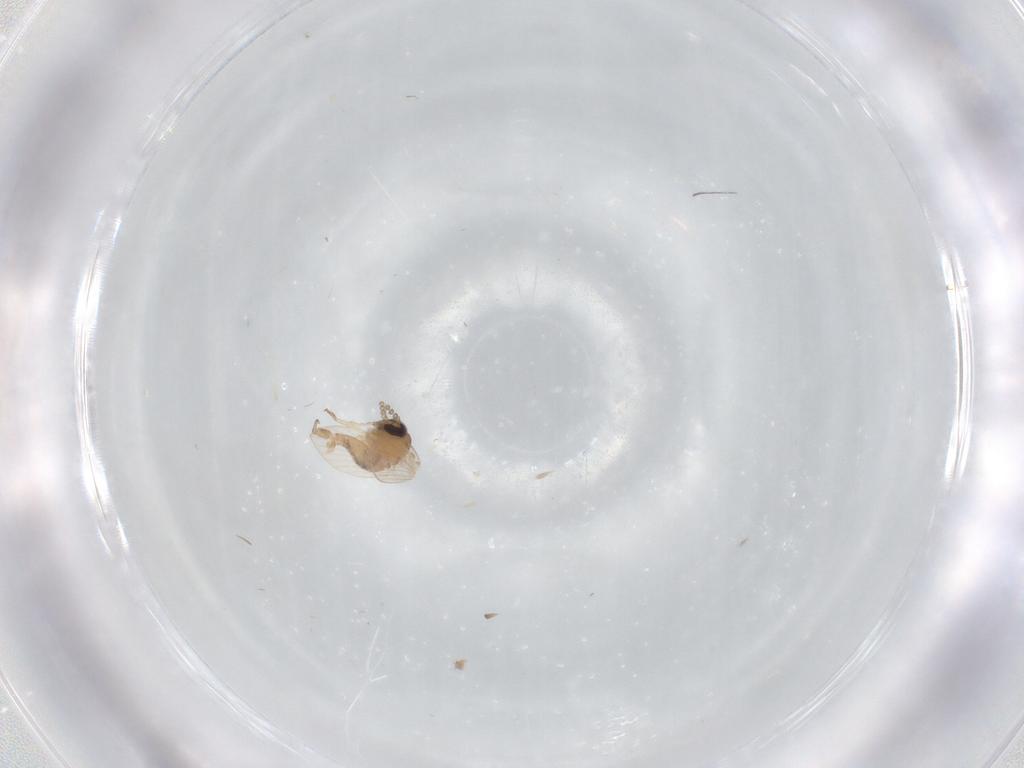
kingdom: Animalia
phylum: Arthropoda
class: Insecta
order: Diptera
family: Psychodidae
